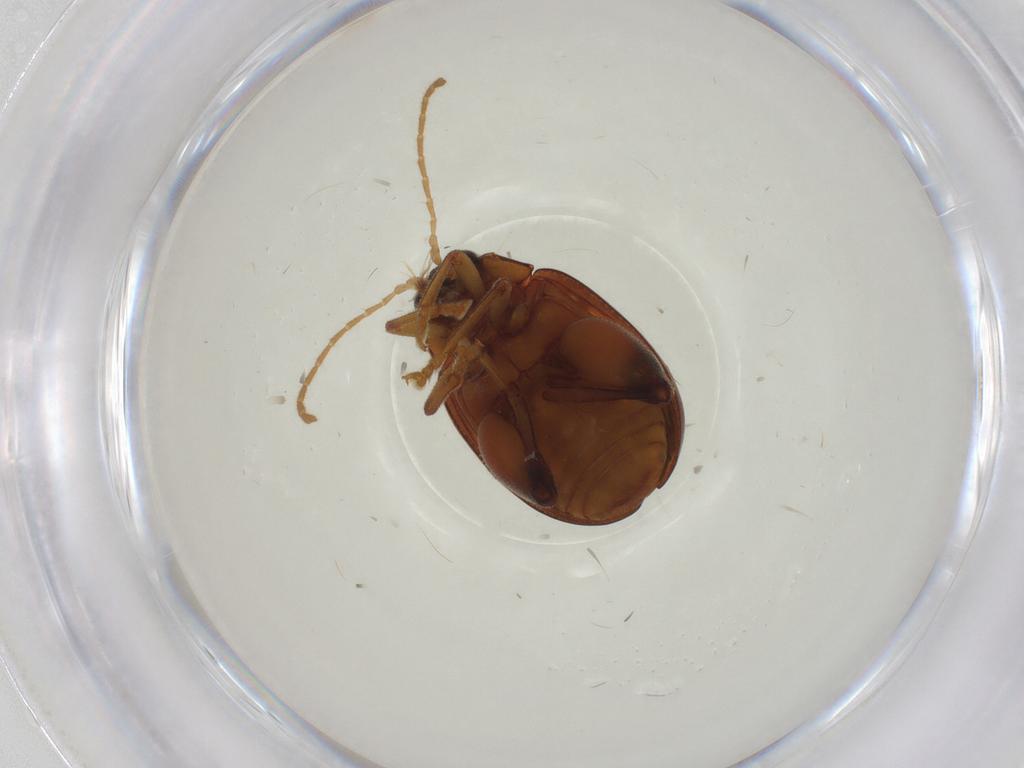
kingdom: Animalia
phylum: Arthropoda
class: Insecta
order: Coleoptera
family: Chrysomelidae
